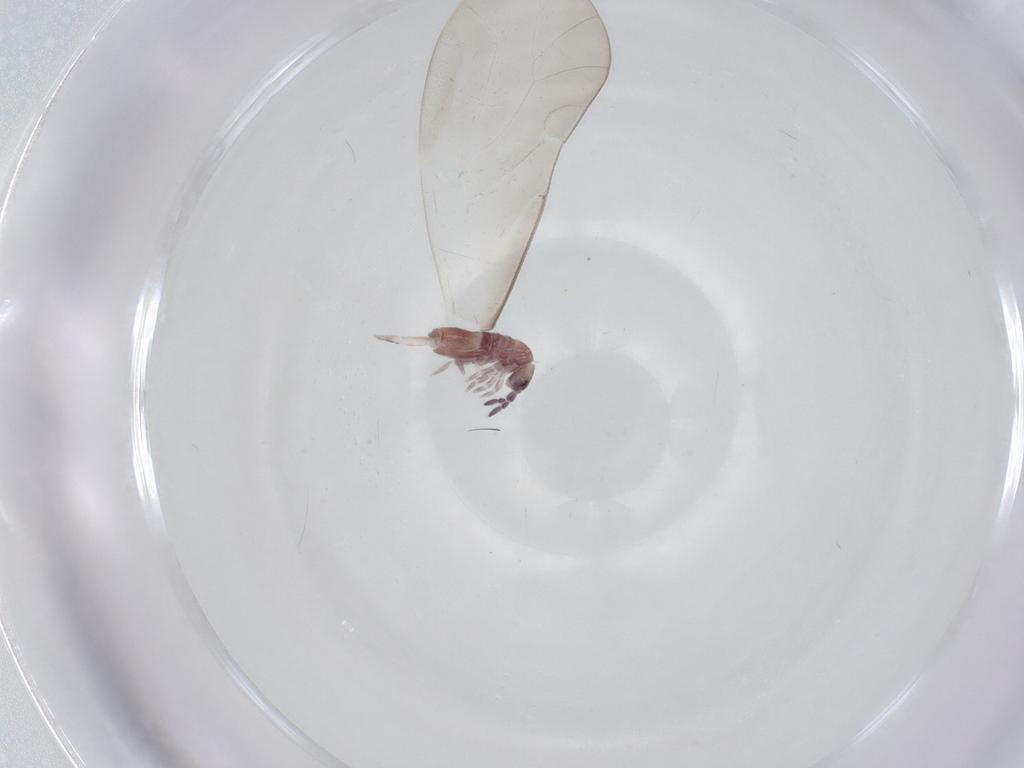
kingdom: Animalia
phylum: Arthropoda
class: Collembola
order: Entomobryomorpha
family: Entomobryidae
